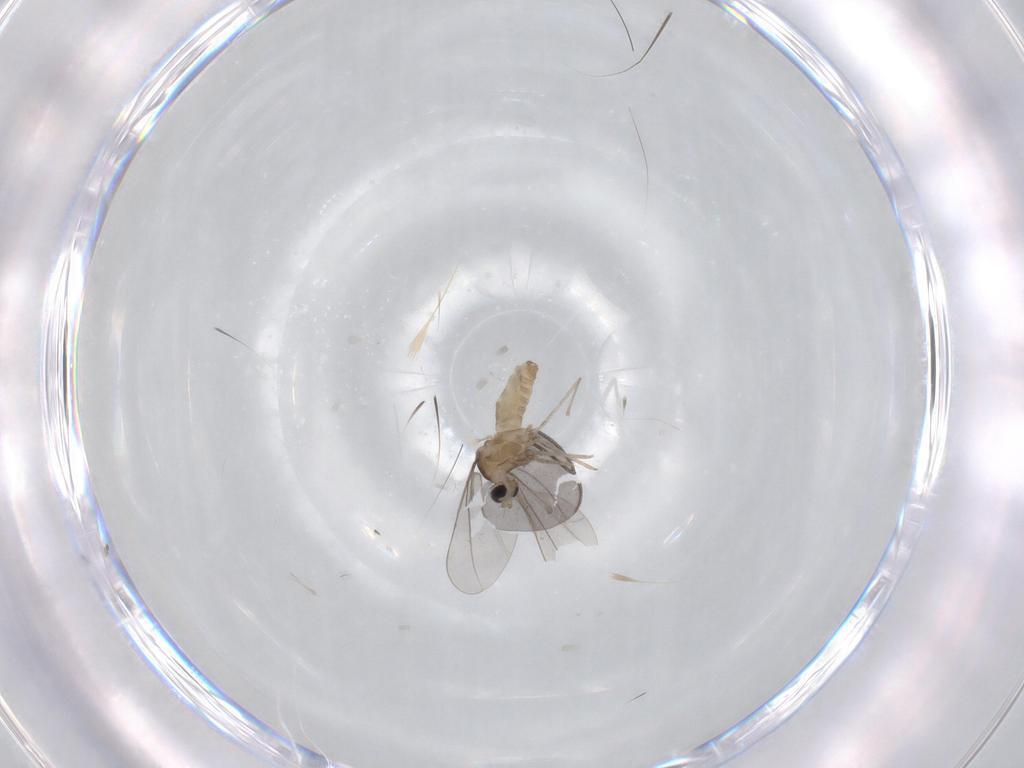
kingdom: Animalia
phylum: Arthropoda
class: Insecta
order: Diptera
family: Cecidomyiidae
